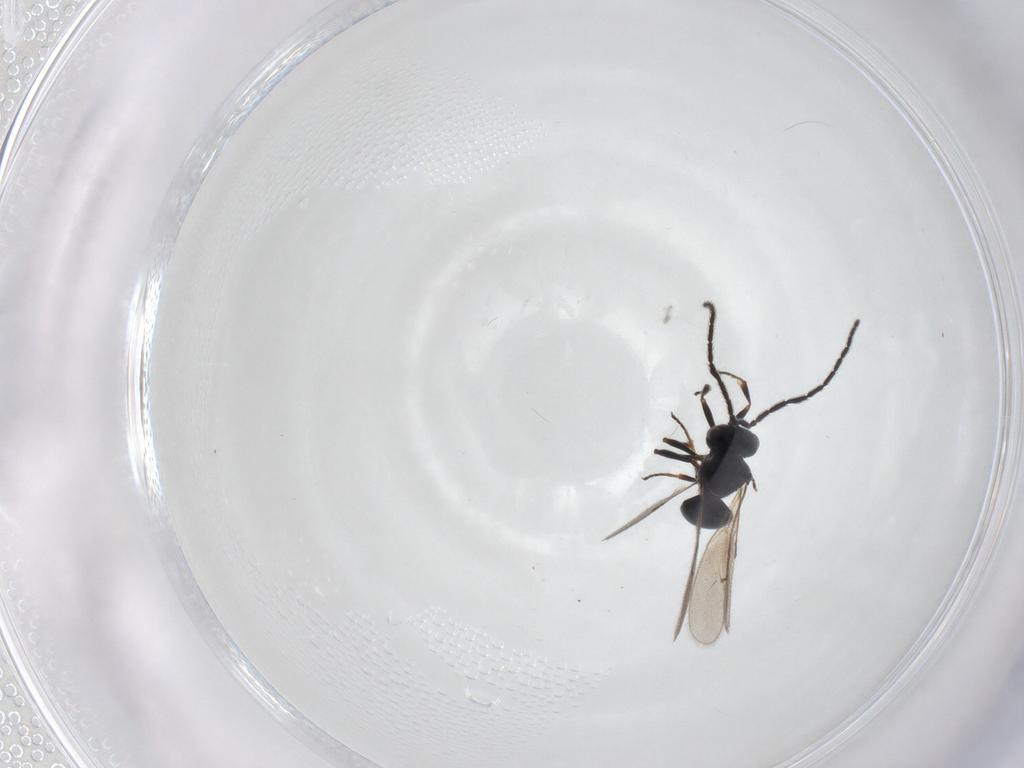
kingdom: Animalia
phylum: Arthropoda
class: Insecta
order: Hymenoptera
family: Scelionidae
